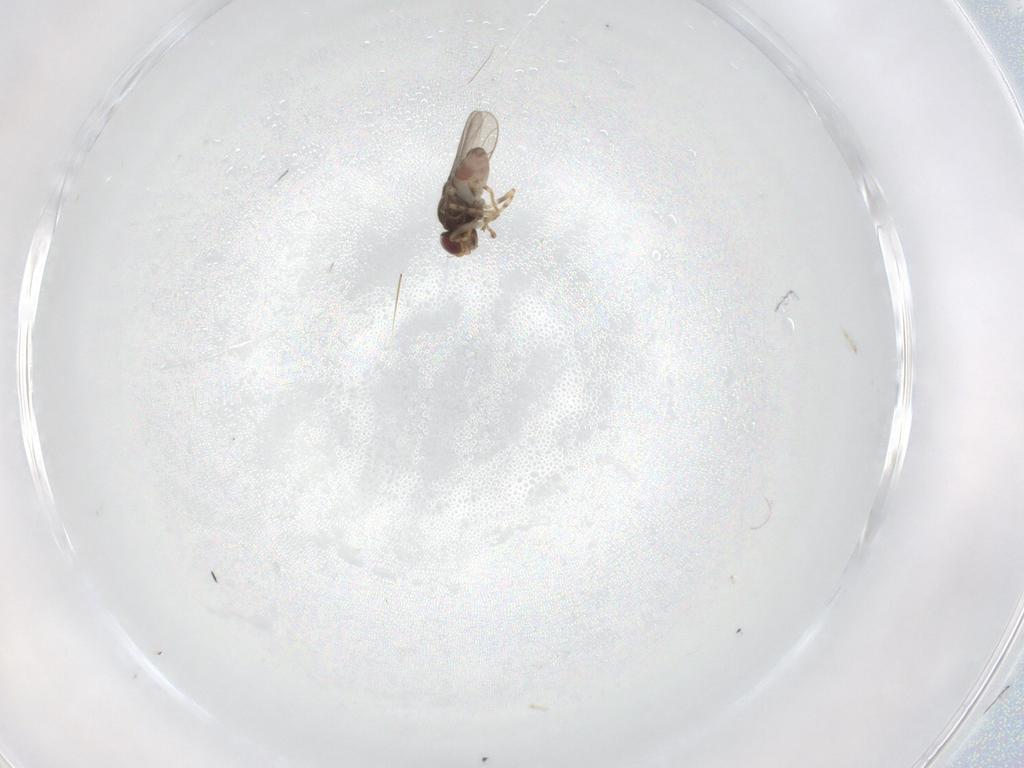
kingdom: Animalia
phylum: Arthropoda
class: Insecta
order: Diptera
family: Chloropidae
